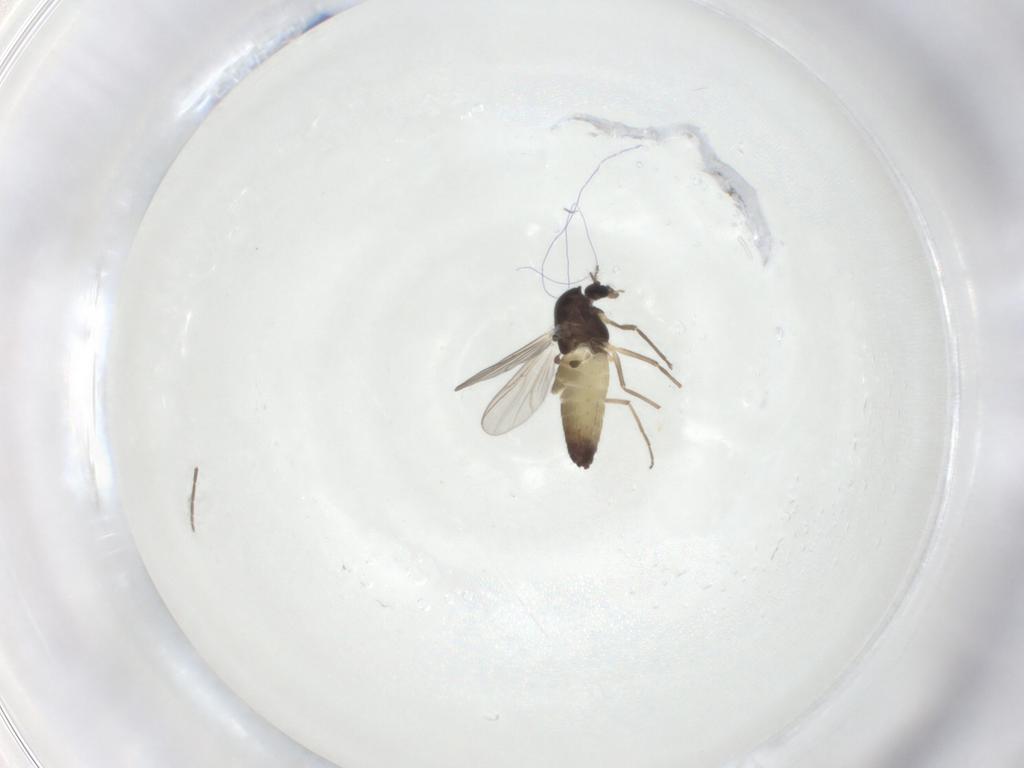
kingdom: Animalia
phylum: Arthropoda
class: Insecta
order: Diptera
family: Chironomidae
